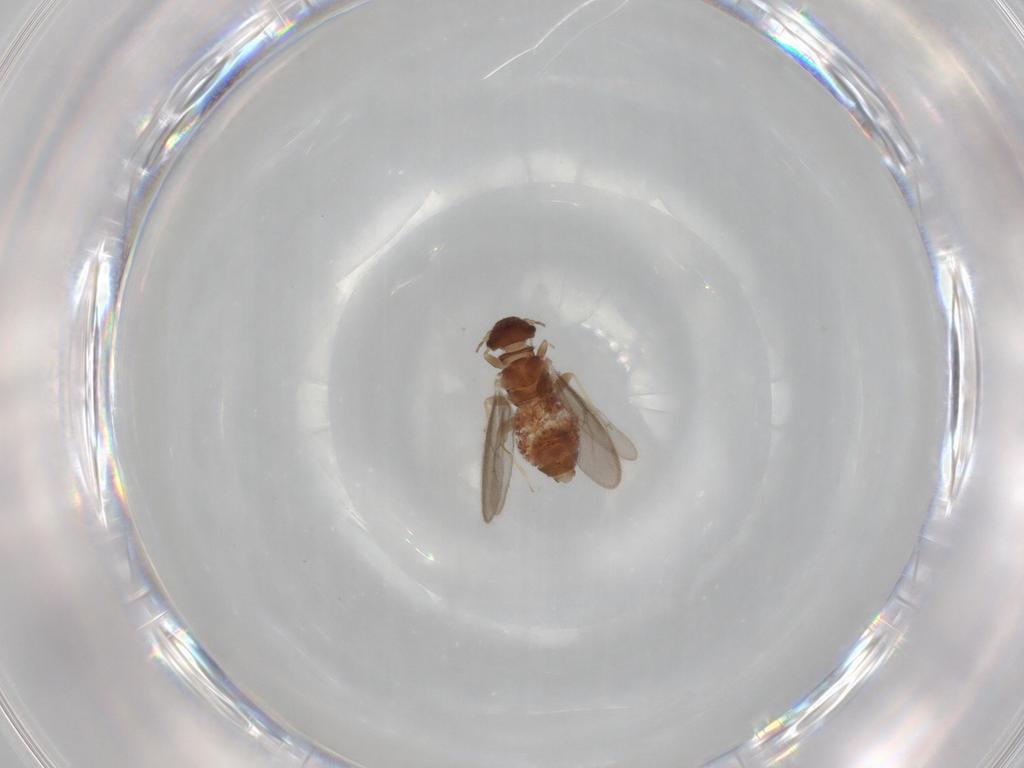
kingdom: Animalia
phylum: Arthropoda
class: Insecta
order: Psocodea
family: Archipsocidae
